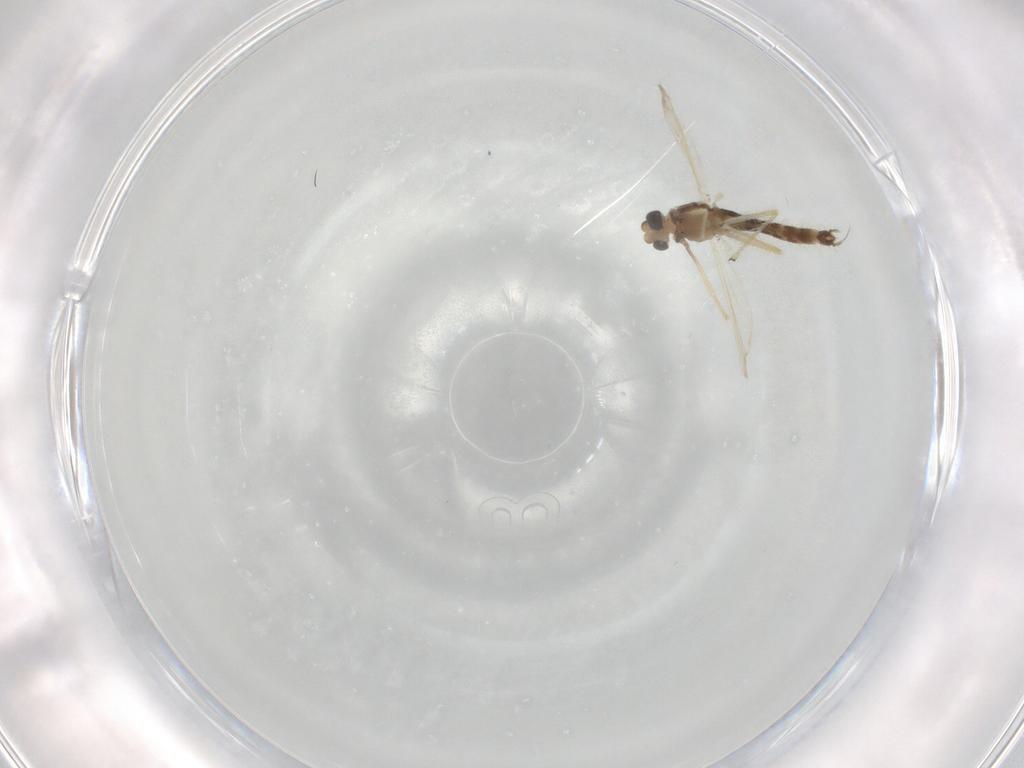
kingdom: Animalia
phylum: Arthropoda
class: Insecta
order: Diptera
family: Chironomidae
